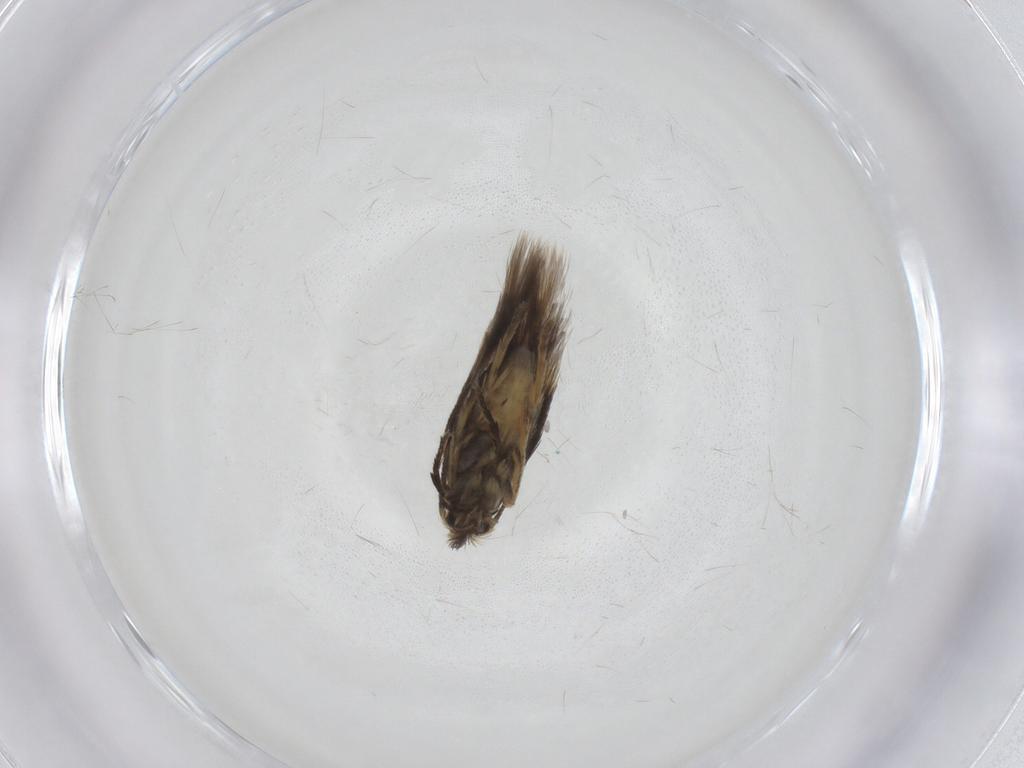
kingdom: Animalia
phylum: Arthropoda
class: Insecta
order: Lepidoptera
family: Nepticulidae
